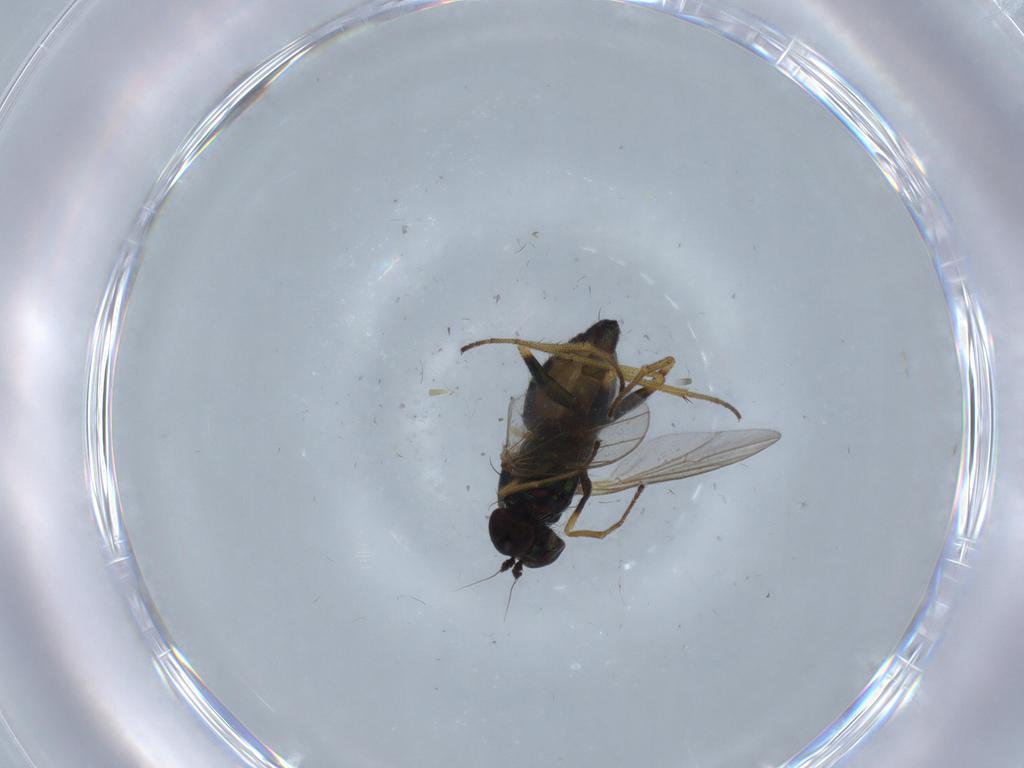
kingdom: Animalia
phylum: Arthropoda
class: Insecta
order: Diptera
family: Dolichopodidae
